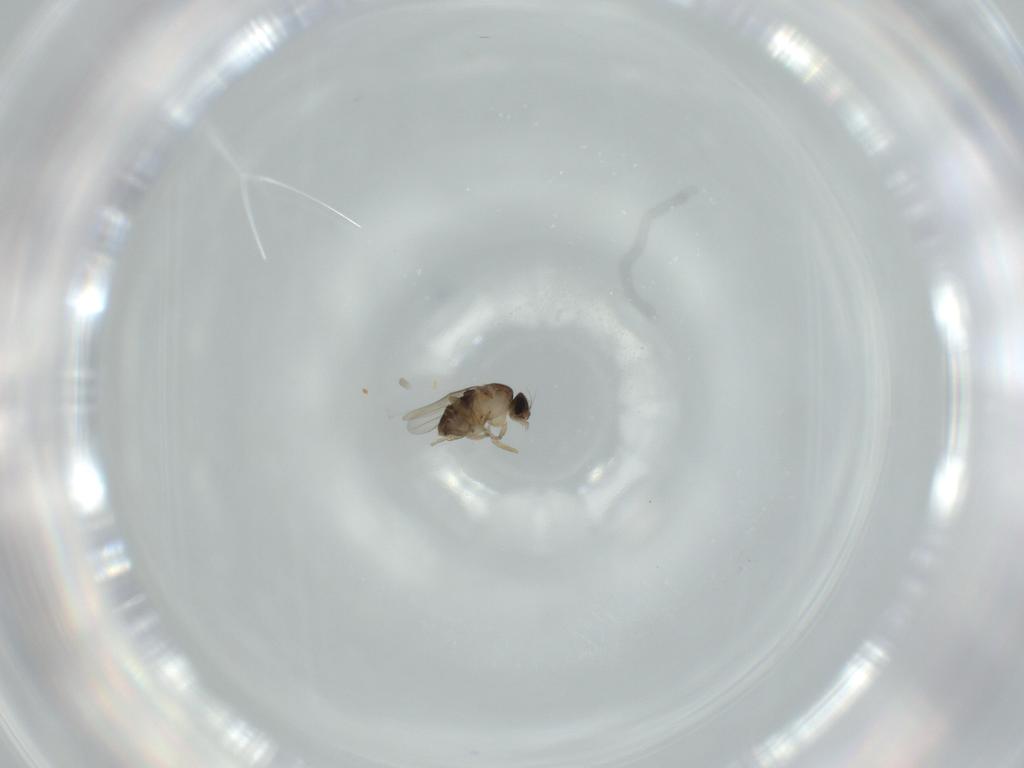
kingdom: Animalia
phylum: Arthropoda
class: Insecta
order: Diptera
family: Phoridae
